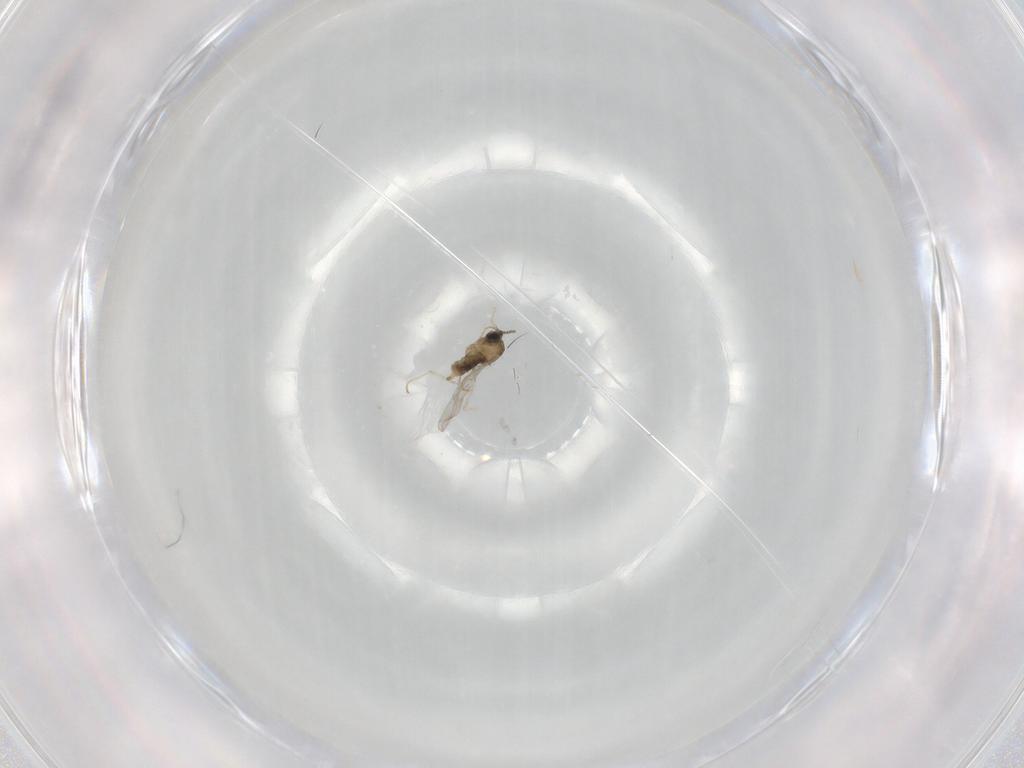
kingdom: Animalia
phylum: Arthropoda
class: Insecta
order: Diptera
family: Cecidomyiidae
